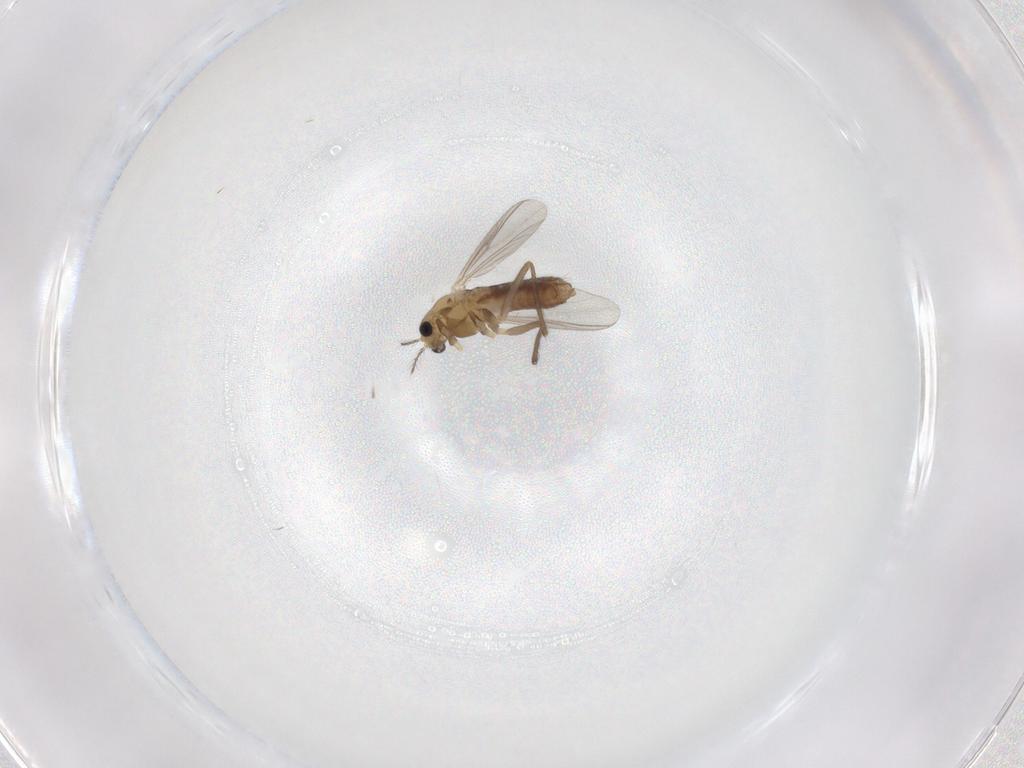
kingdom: Animalia
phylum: Arthropoda
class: Insecta
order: Diptera
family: Chironomidae
